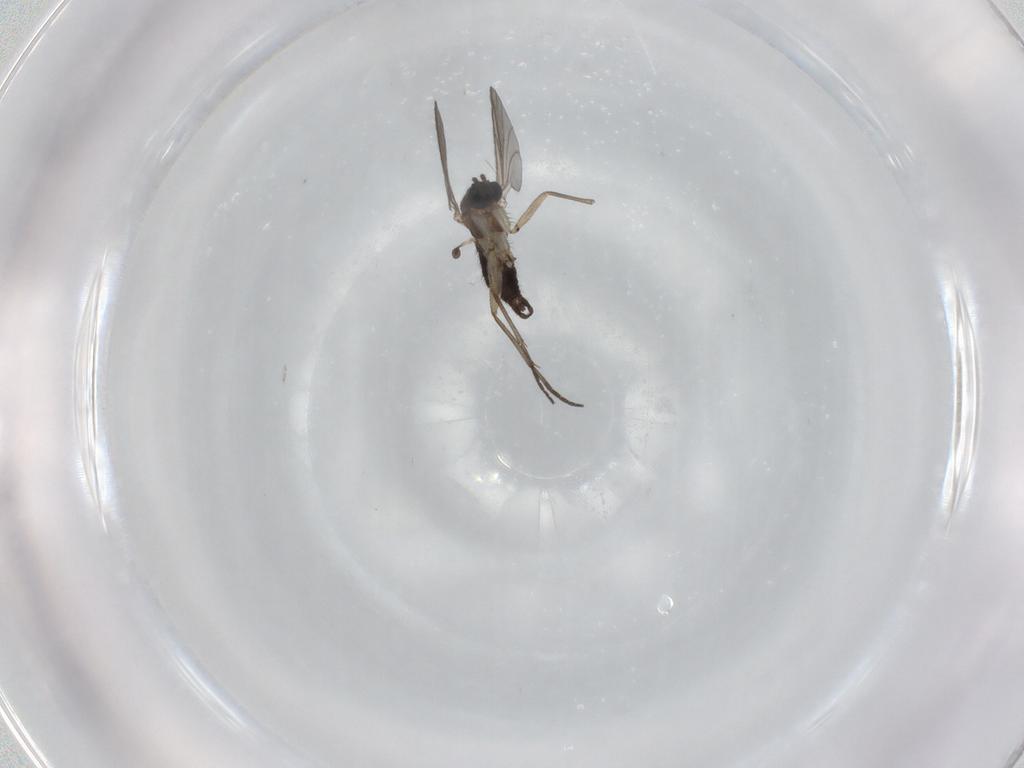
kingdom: Animalia
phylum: Arthropoda
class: Insecta
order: Diptera
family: Sciaridae
